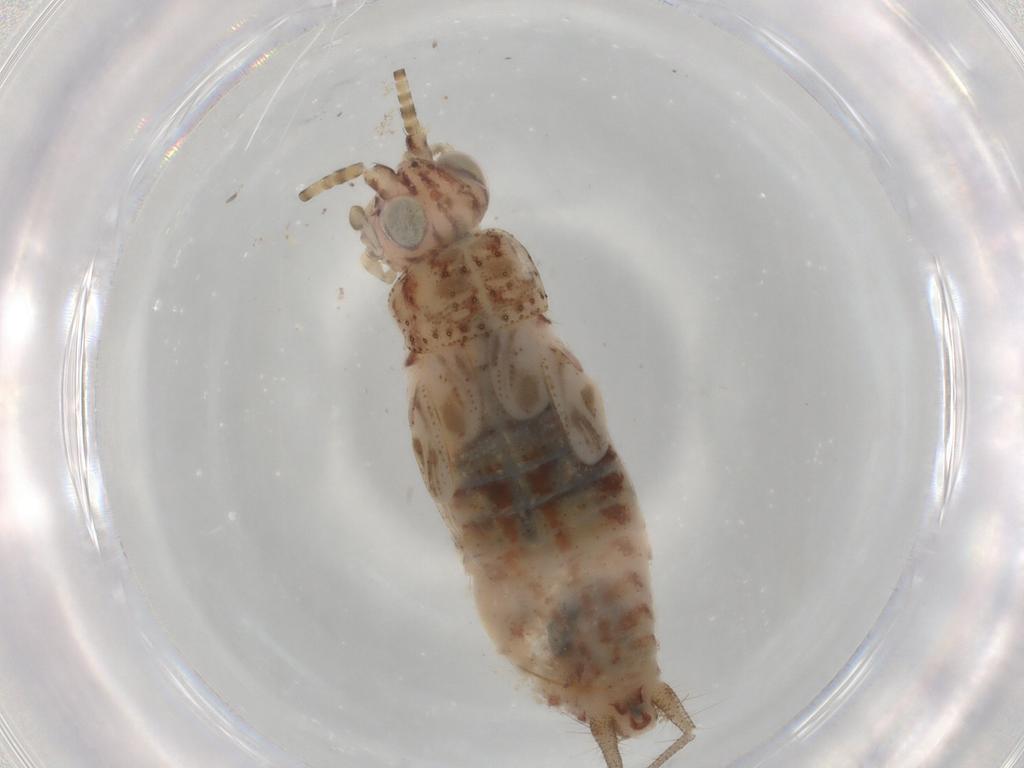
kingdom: Animalia
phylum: Arthropoda
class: Insecta
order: Orthoptera
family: Trigonidiidae
